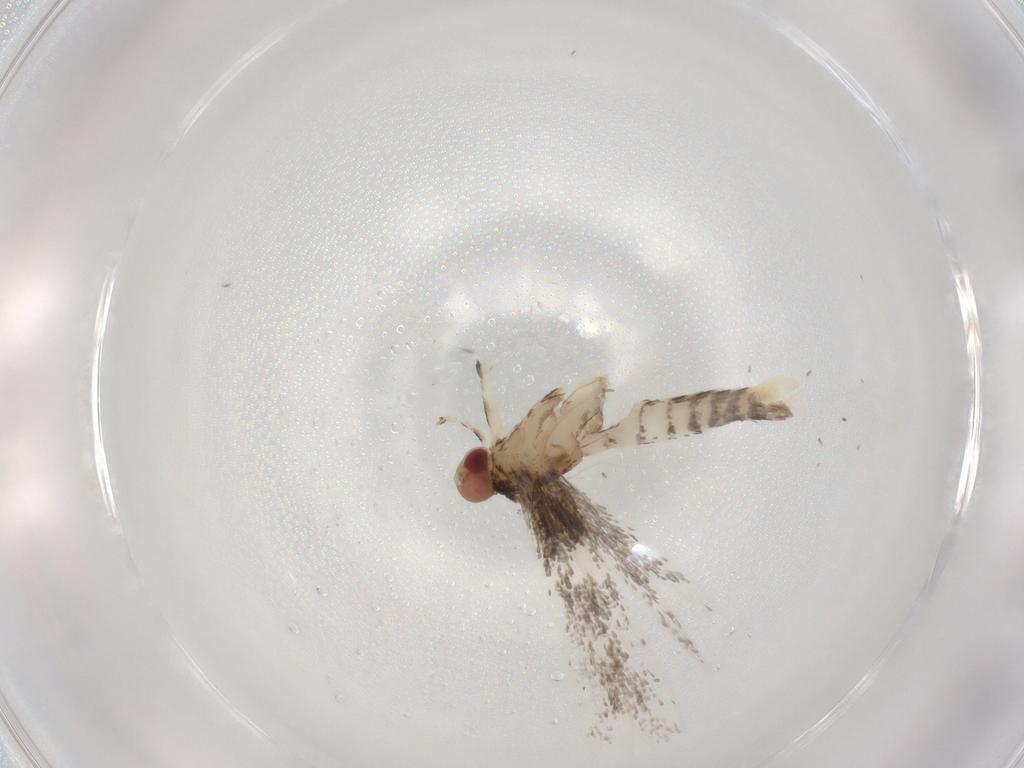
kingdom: Animalia
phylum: Arthropoda
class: Insecta
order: Lepidoptera
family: Gracillariidae
